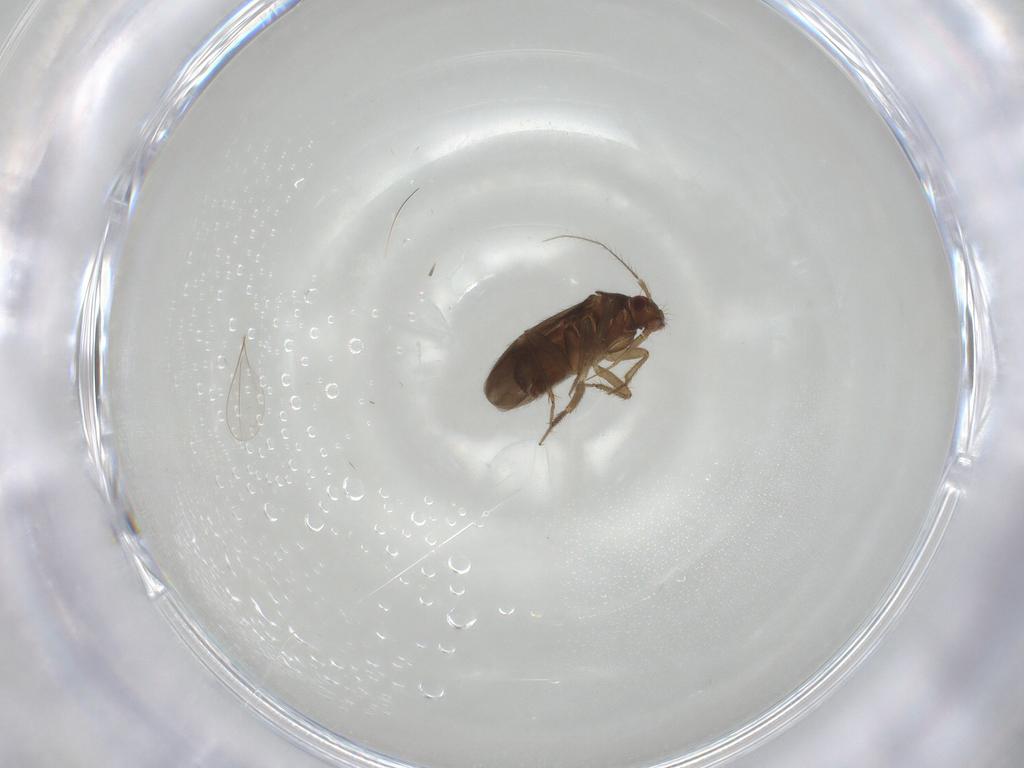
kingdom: Animalia
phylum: Arthropoda
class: Insecta
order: Hemiptera
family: Ceratocombidae
